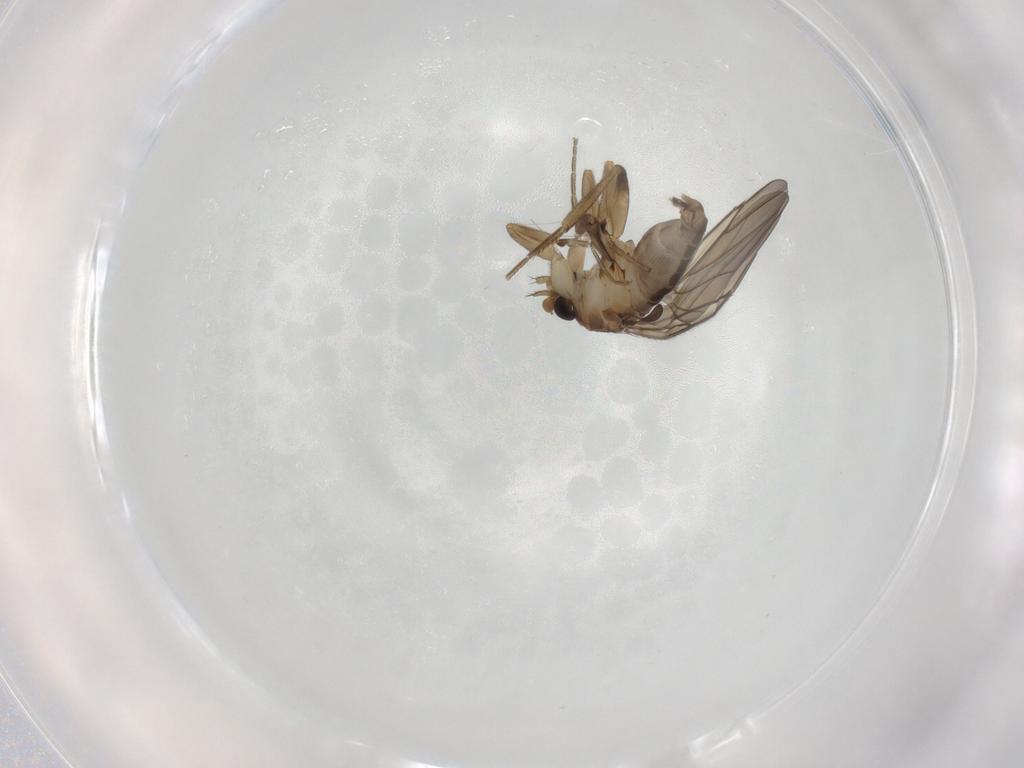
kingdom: Animalia
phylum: Arthropoda
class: Insecta
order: Diptera
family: Phoridae
